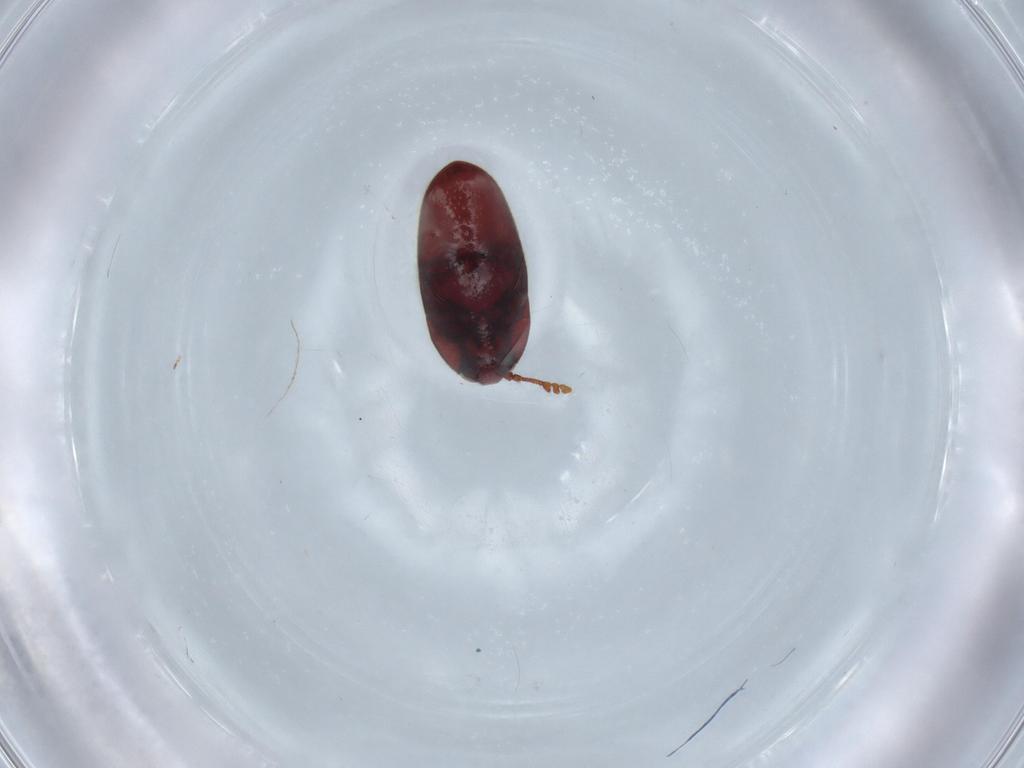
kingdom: Animalia
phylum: Arthropoda
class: Insecta
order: Coleoptera
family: Throscidae
